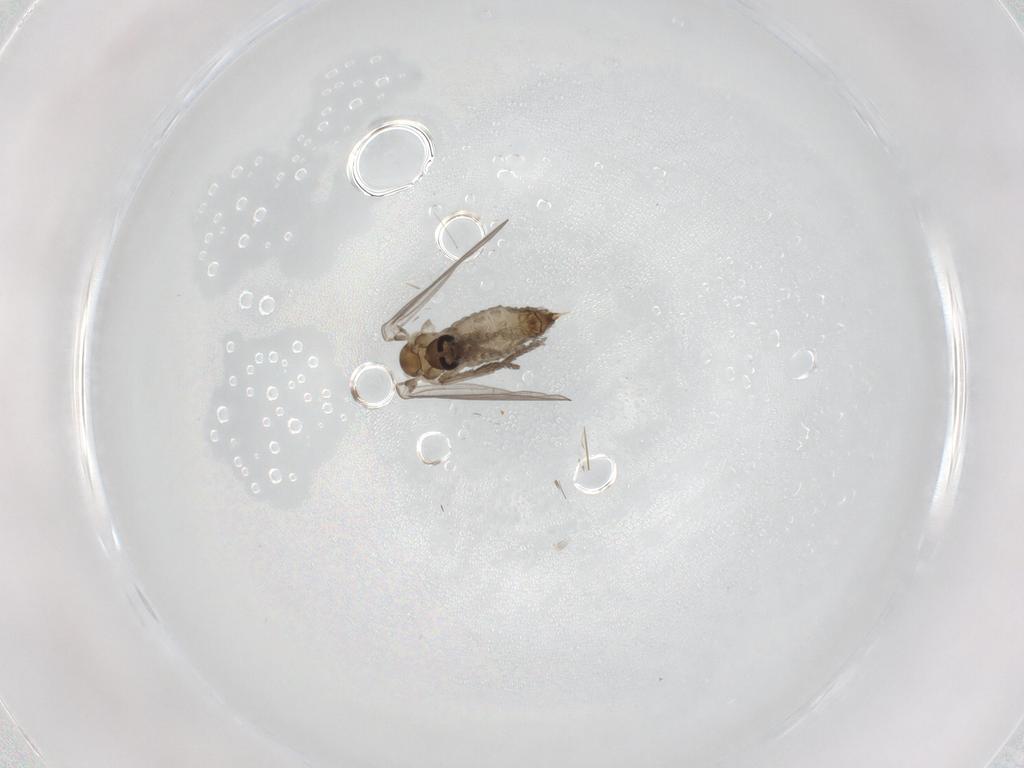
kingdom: Animalia
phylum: Arthropoda
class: Insecta
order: Diptera
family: Psychodidae
